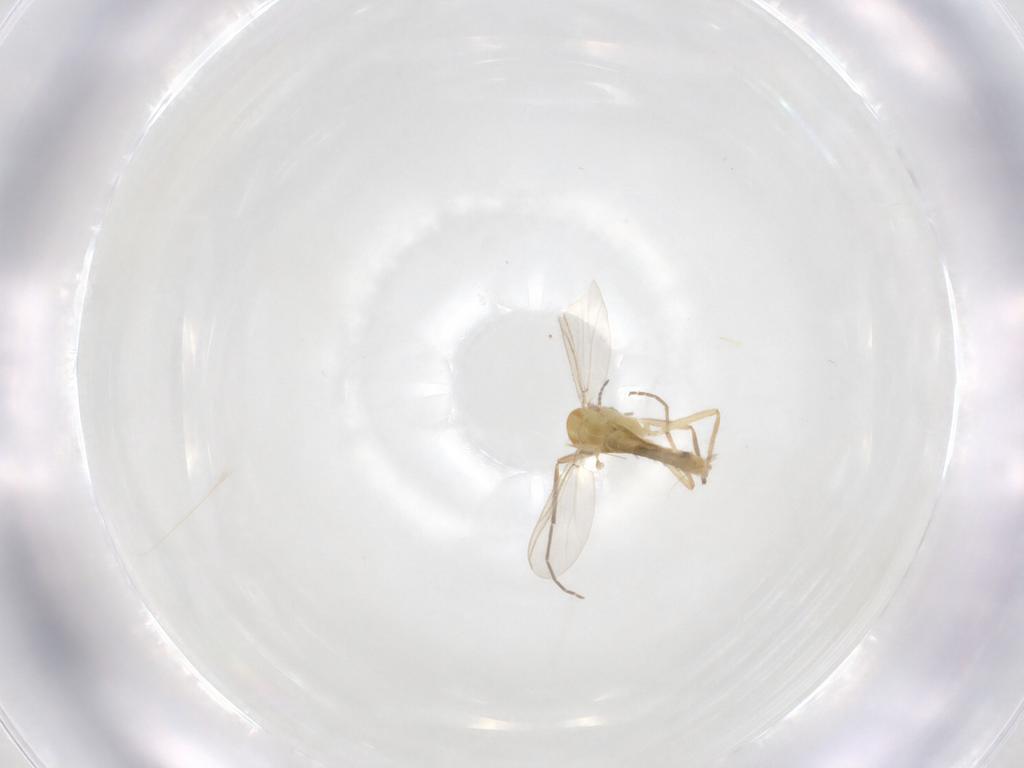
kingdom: Animalia
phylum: Arthropoda
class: Insecta
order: Diptera
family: Chironomidae
